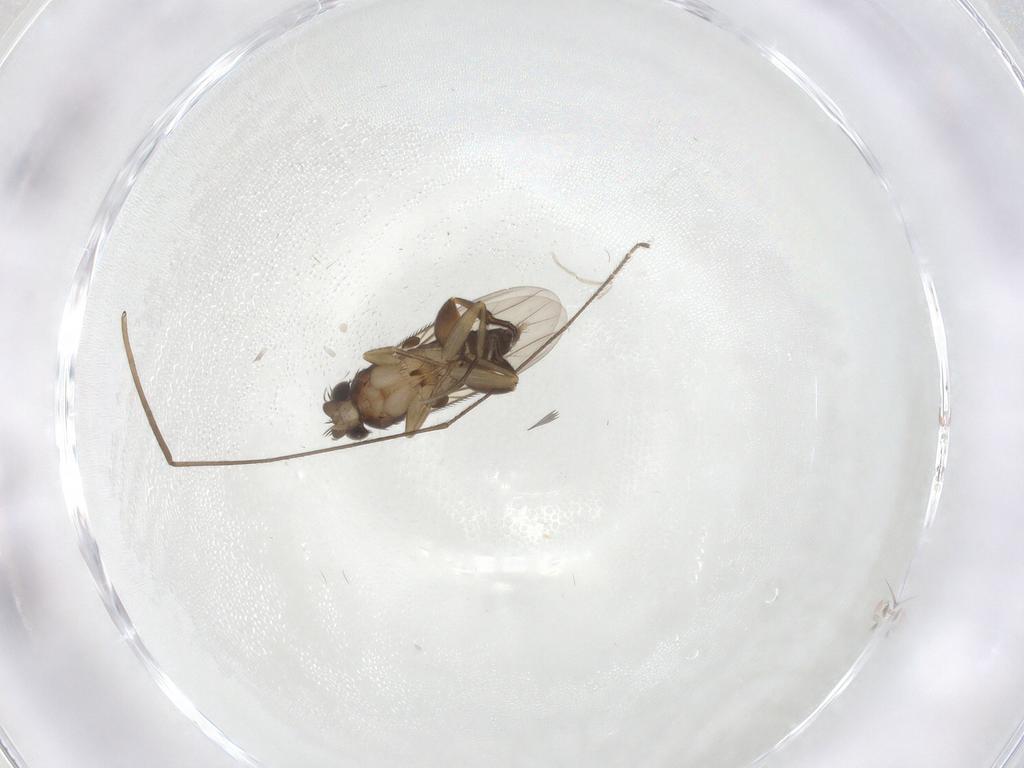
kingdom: Animalia
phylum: Arthropoda
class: Insecta
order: Diptera
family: Phoridae
